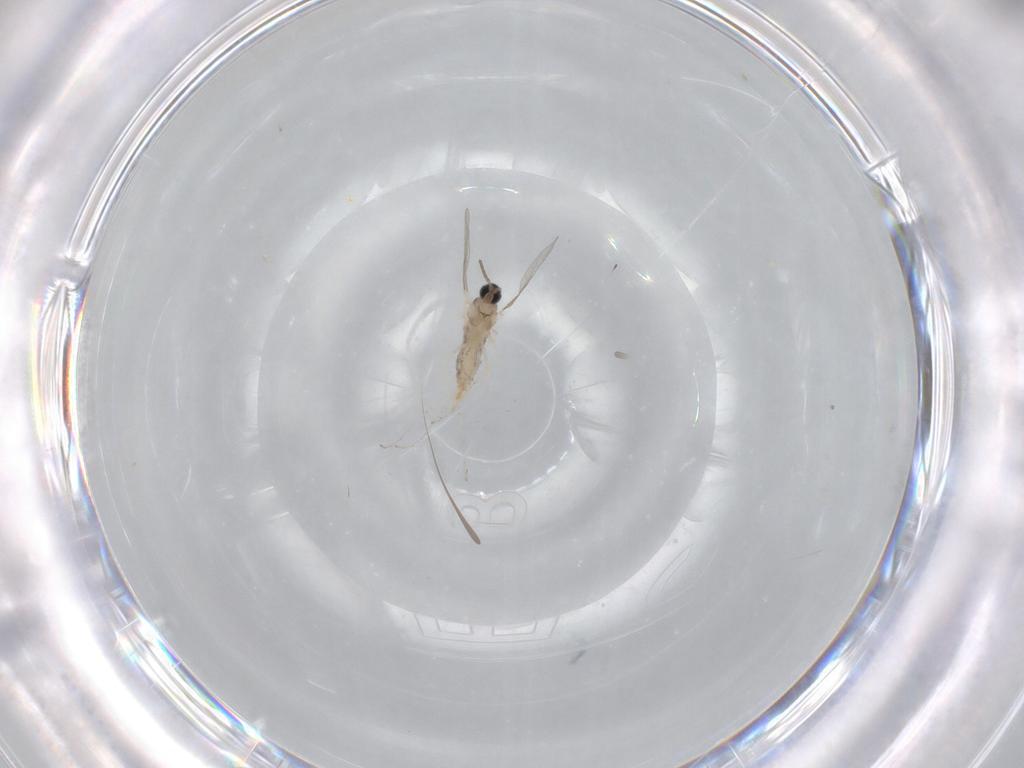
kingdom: Animalia
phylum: Arthropoda
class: Insecta
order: Diptera
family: Cecidomyiidae
